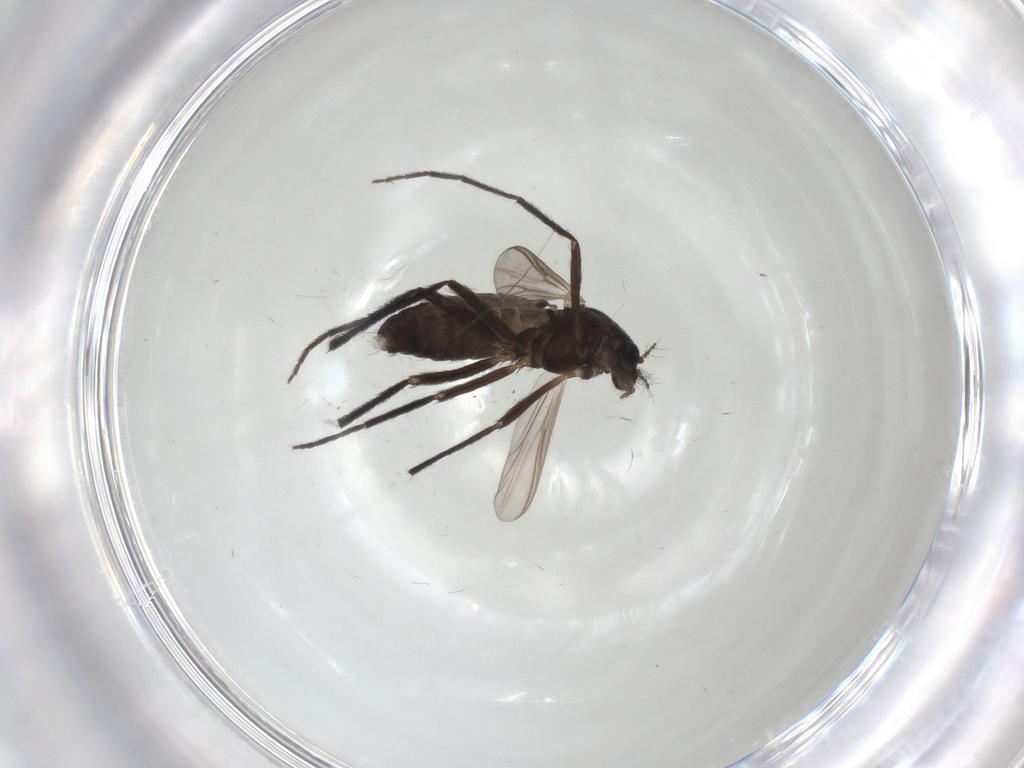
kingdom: Animalia
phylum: Arthropoda
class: Insecta
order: Diptera
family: Chironomidae
